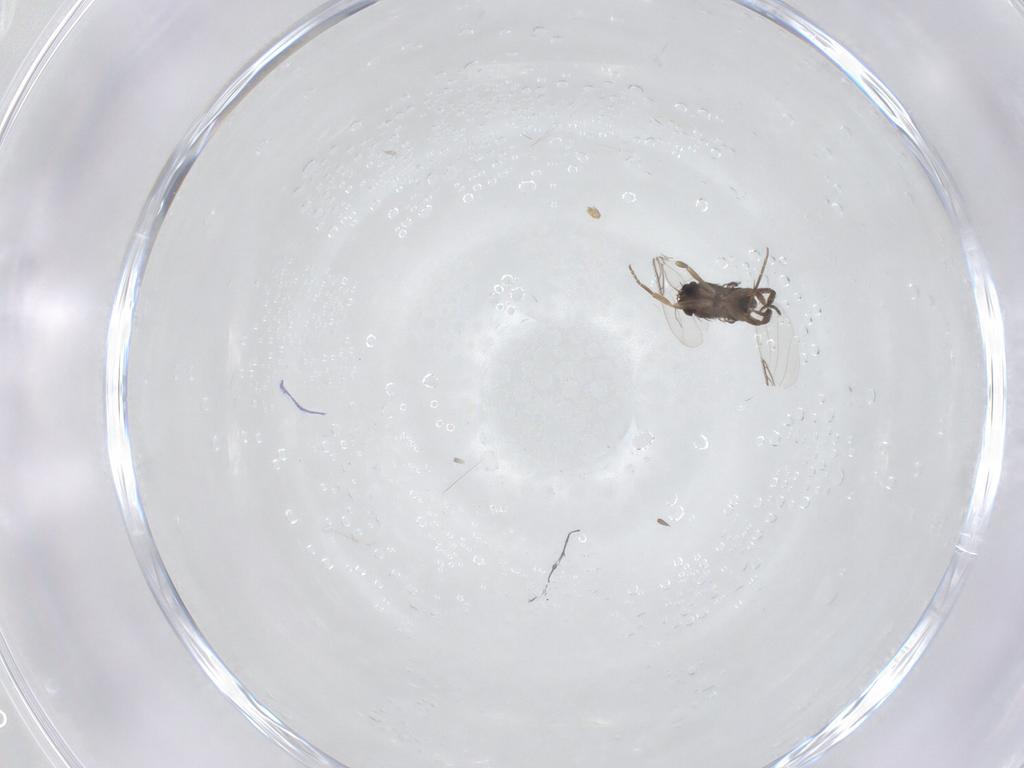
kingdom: Animalia
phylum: Arthropoda
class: Insecta
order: Diptera
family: Phoridae
